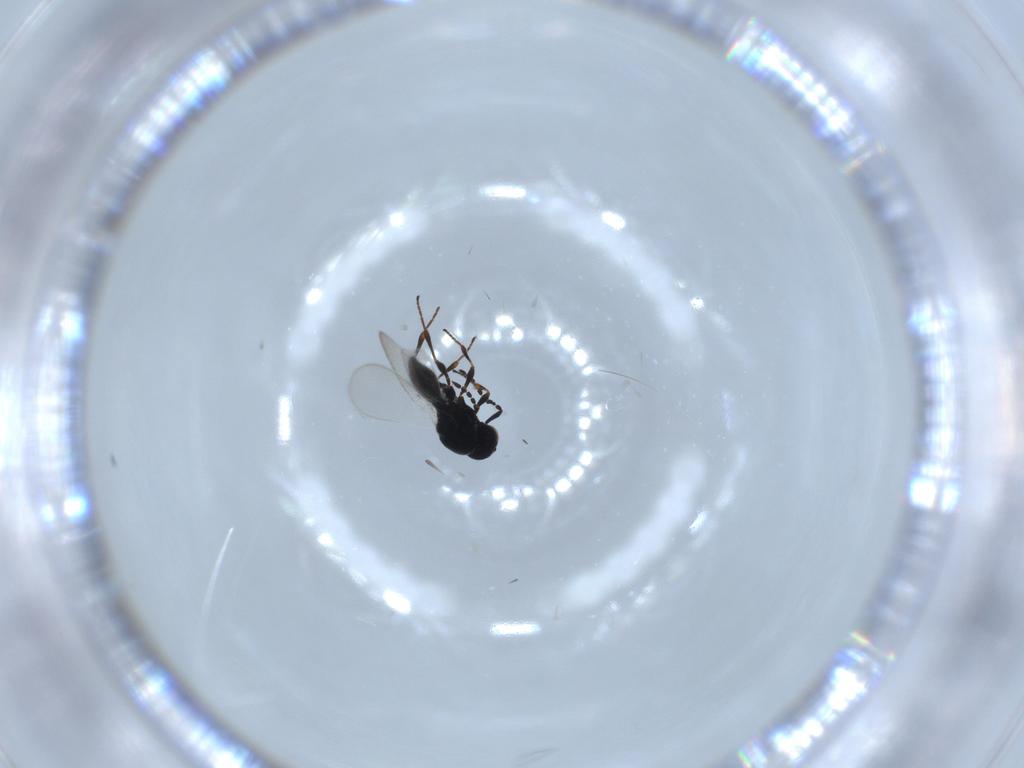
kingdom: Animalia
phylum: Arthropoda
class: Insecta
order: Hymenoptera
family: Platygastridae
